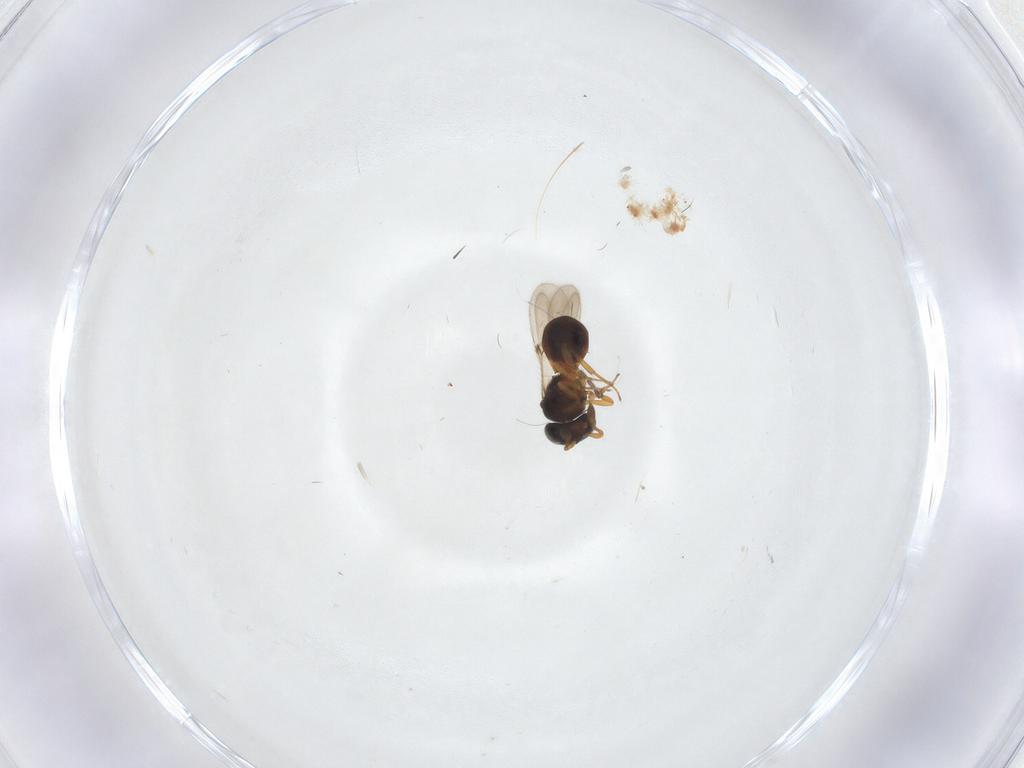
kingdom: Animalia
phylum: Arthropoda
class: Insecta
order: Hymenoptera
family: Scelionidae
